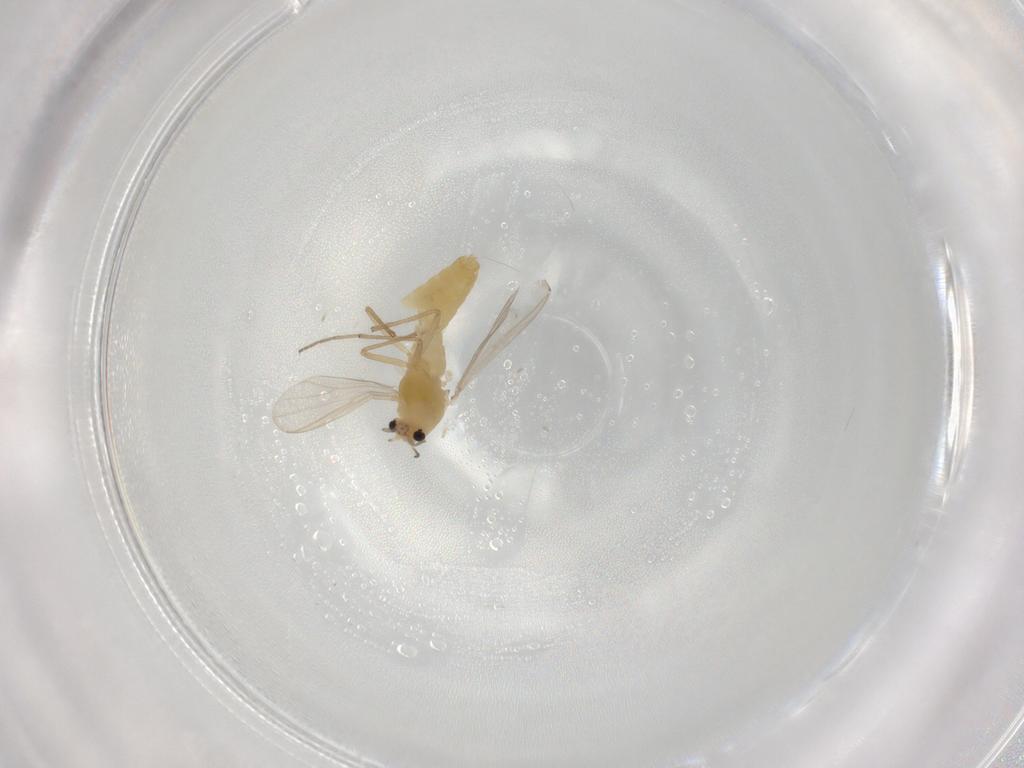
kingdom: Animalia
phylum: Arthropoda
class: Insecta
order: Diptera
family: Chironomidae
